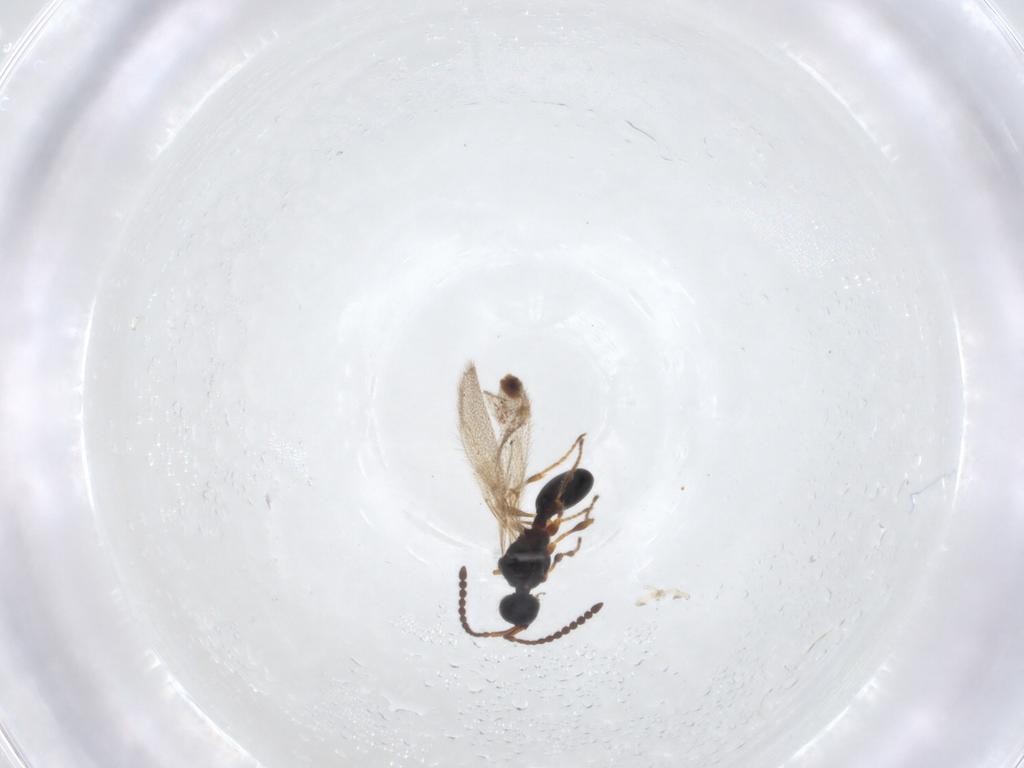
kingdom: Animalia
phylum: Arthropoda
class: Insecta
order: Hymenoptera
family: Diapriidae
